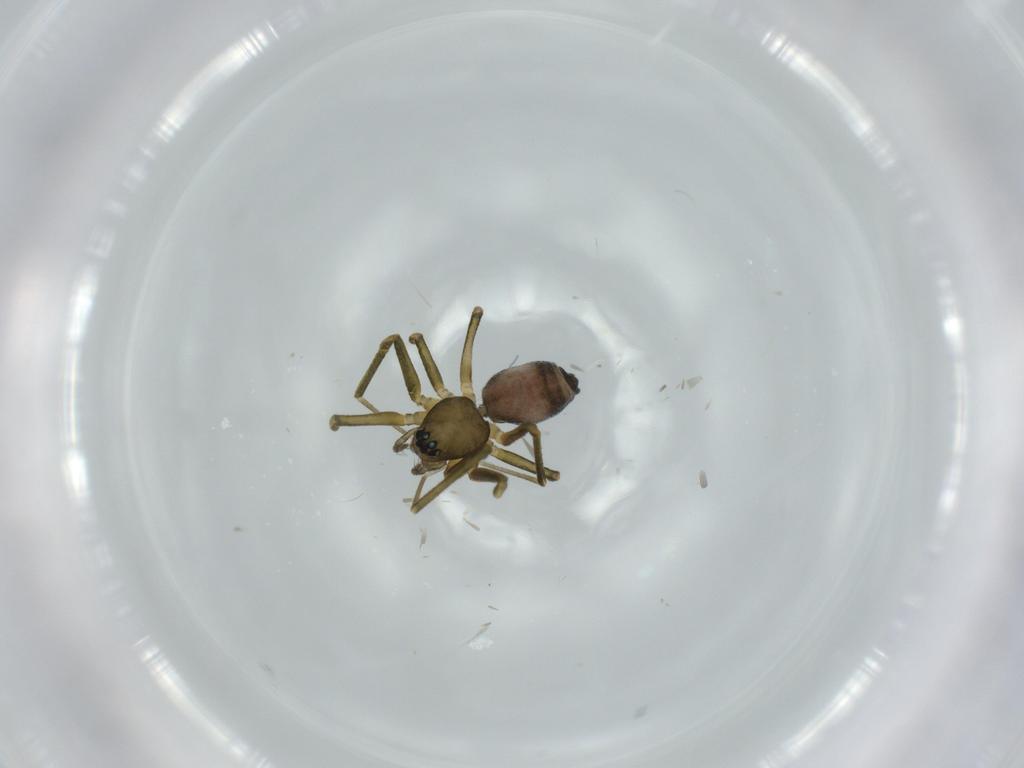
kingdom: Animalia
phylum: Arthropoda
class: Arachnida
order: Araneae
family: Linyphiidae
